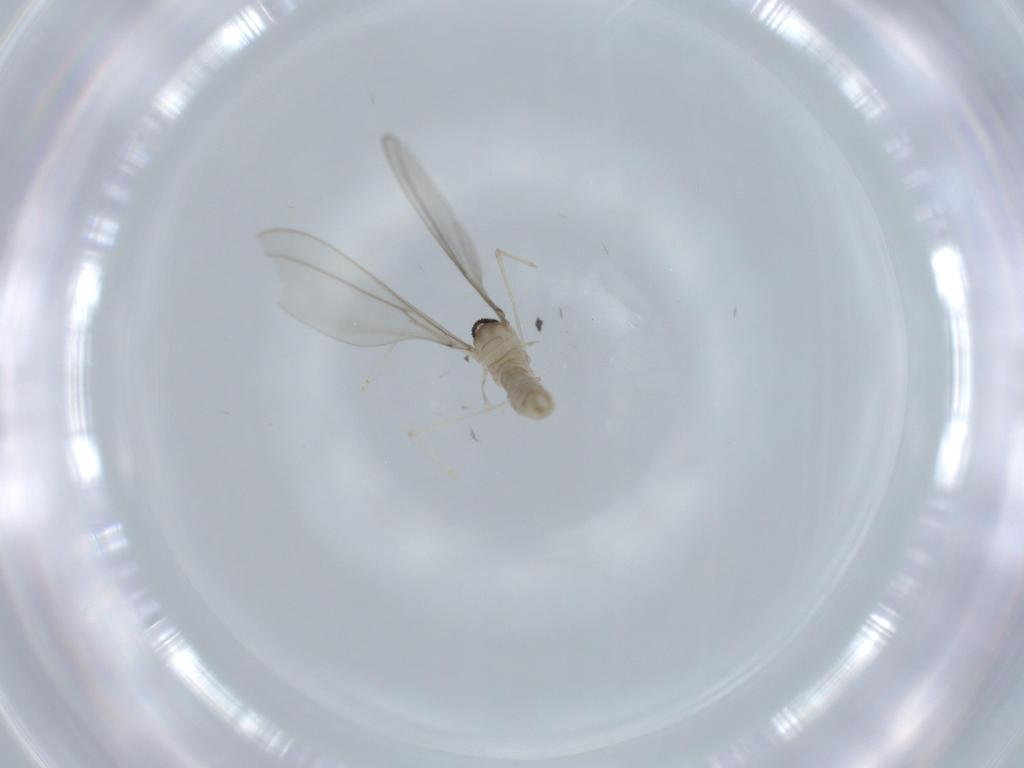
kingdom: Animalia
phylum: Arthropoda
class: Insecta
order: Diptera
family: Cecidomyiidae
